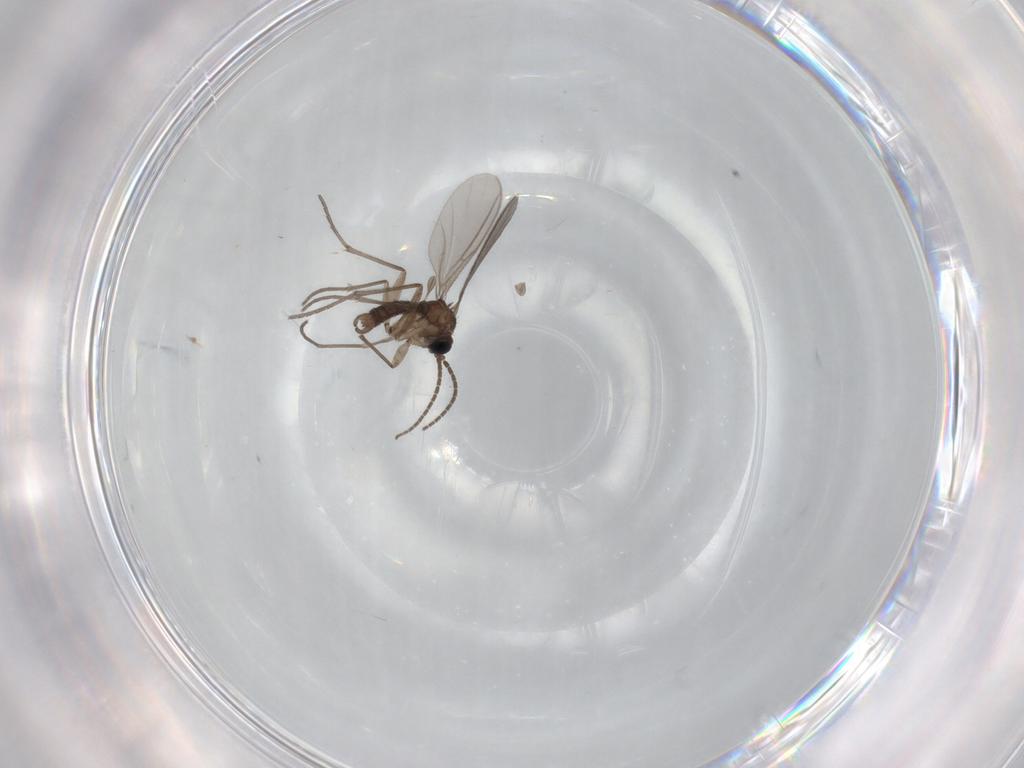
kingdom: Animalia
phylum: Arthropoda
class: Insecta
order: Diptera
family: Sciaridae
